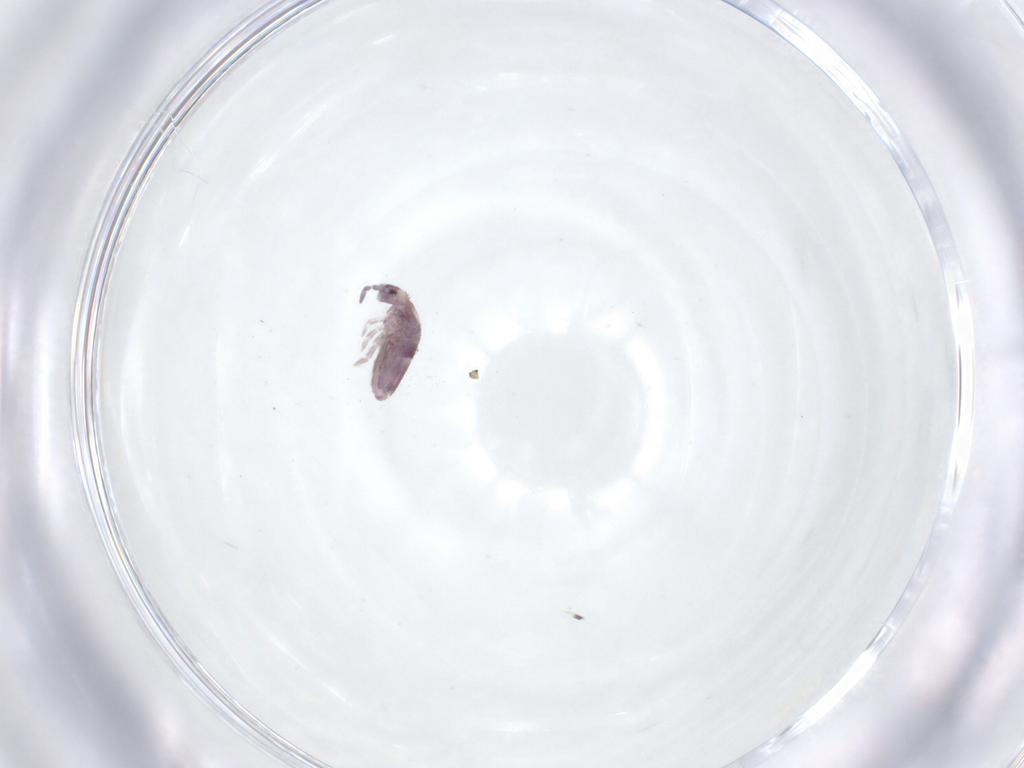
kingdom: Animalia
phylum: Arthropoda
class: Collembola
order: Entomobryomorpha
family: Entomobryidae
